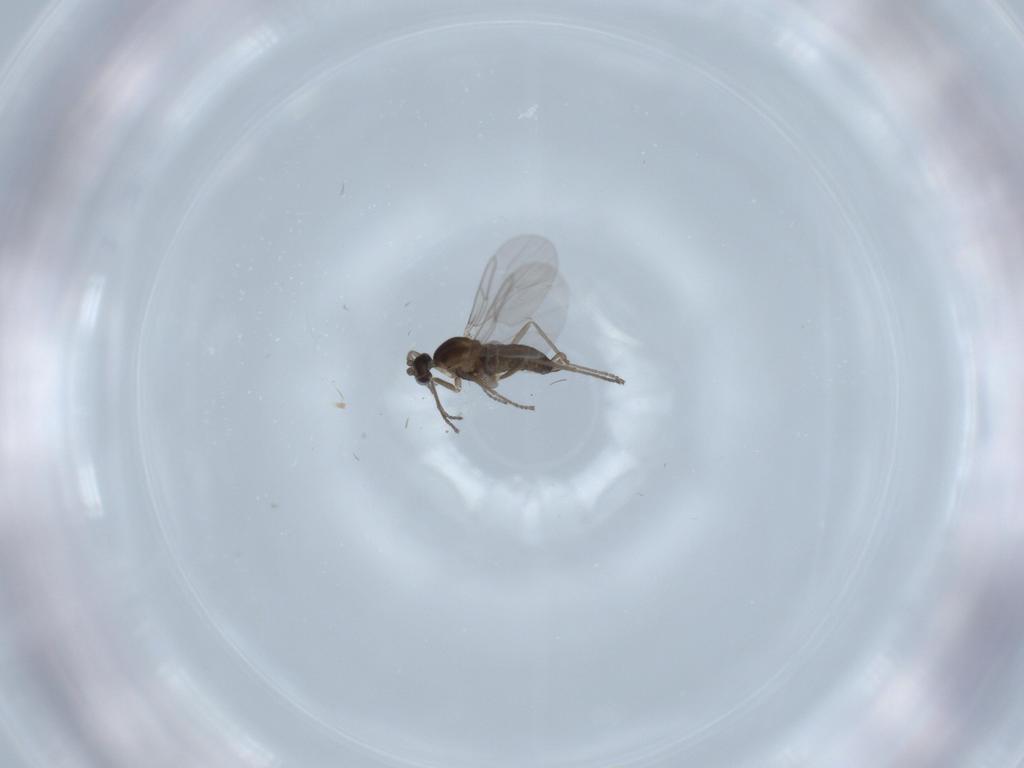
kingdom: Animalia
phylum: Arthropoda
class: Insecta
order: Diptera
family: Cecidomyiidae
